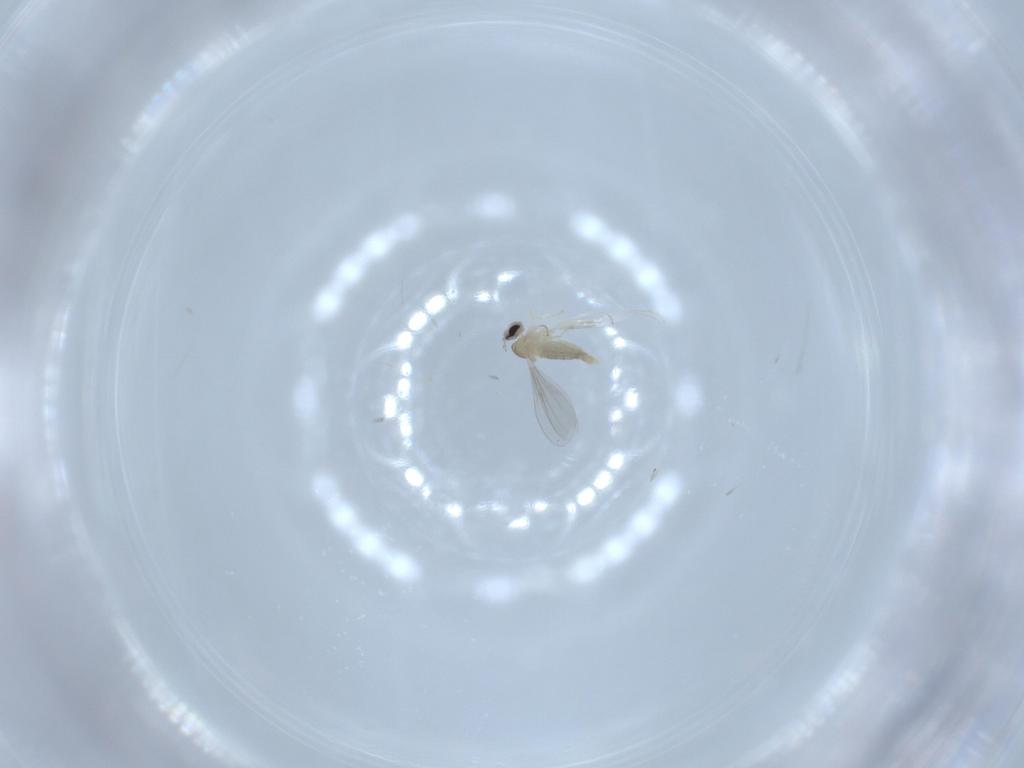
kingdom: Animalia
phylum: Arthropoda
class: Insecta
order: Diptera
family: Cecidomyiidae
